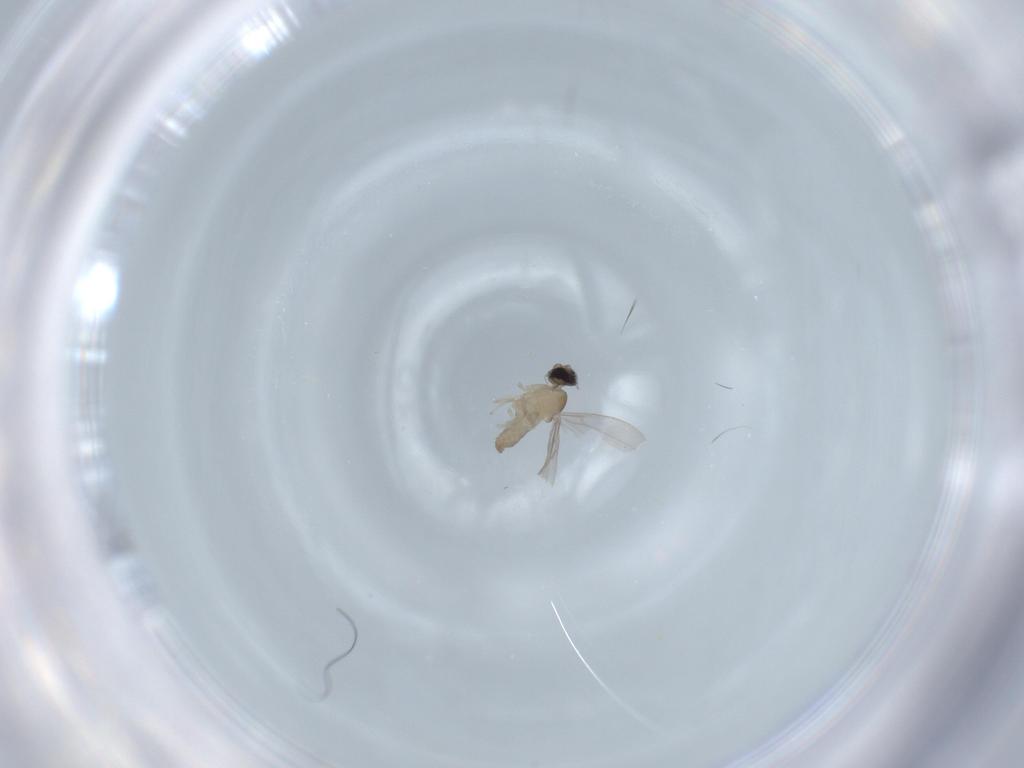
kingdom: Animalia
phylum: Arthropoda
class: Insecta
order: Diptera
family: Cecidomyiidae
